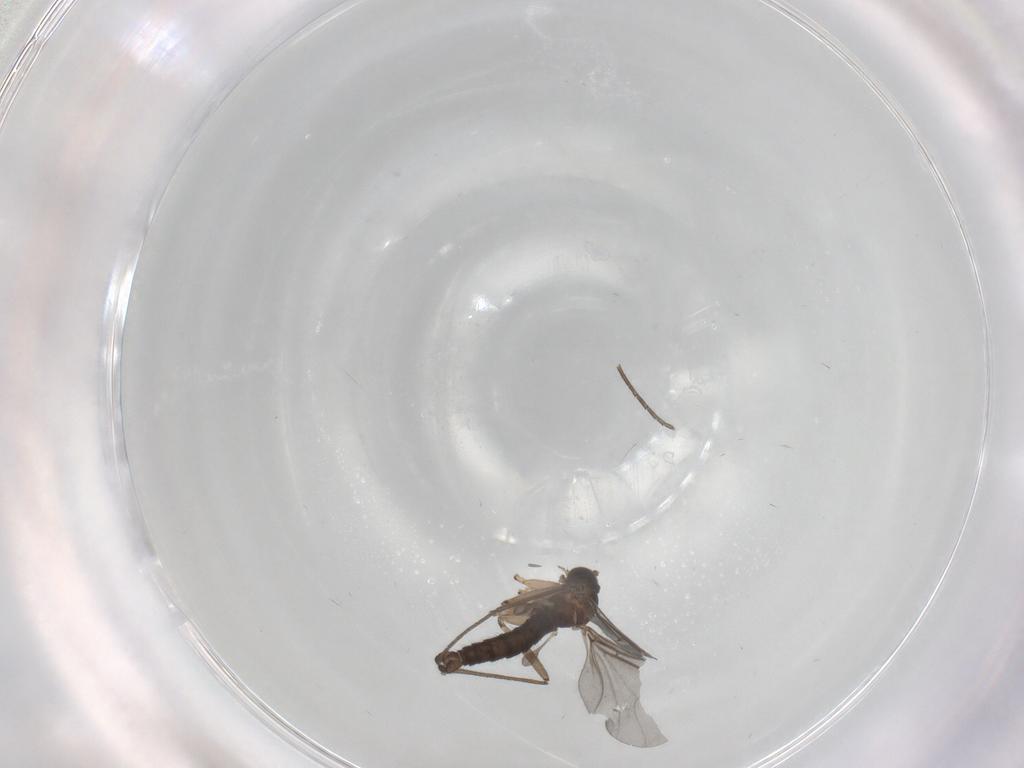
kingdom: Animalia
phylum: Arthropoda
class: Insecta
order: Diptera
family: Sciaridae
